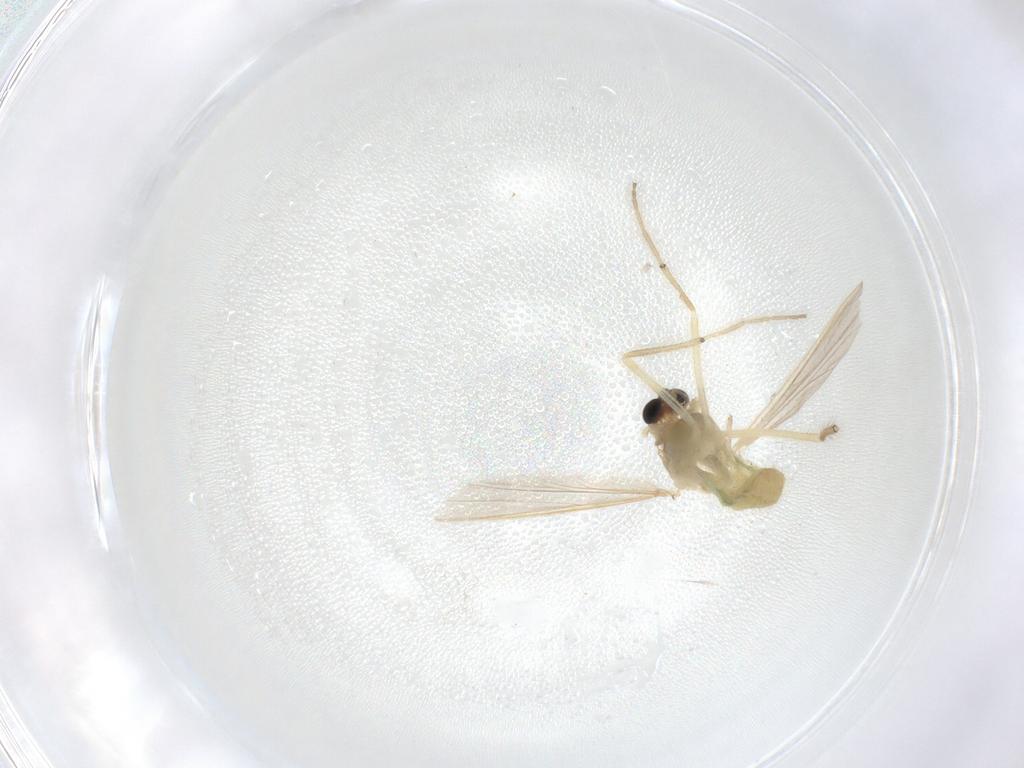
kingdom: Animalia
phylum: Arthropoda
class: Insecta
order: Diptera
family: Chironomidae
